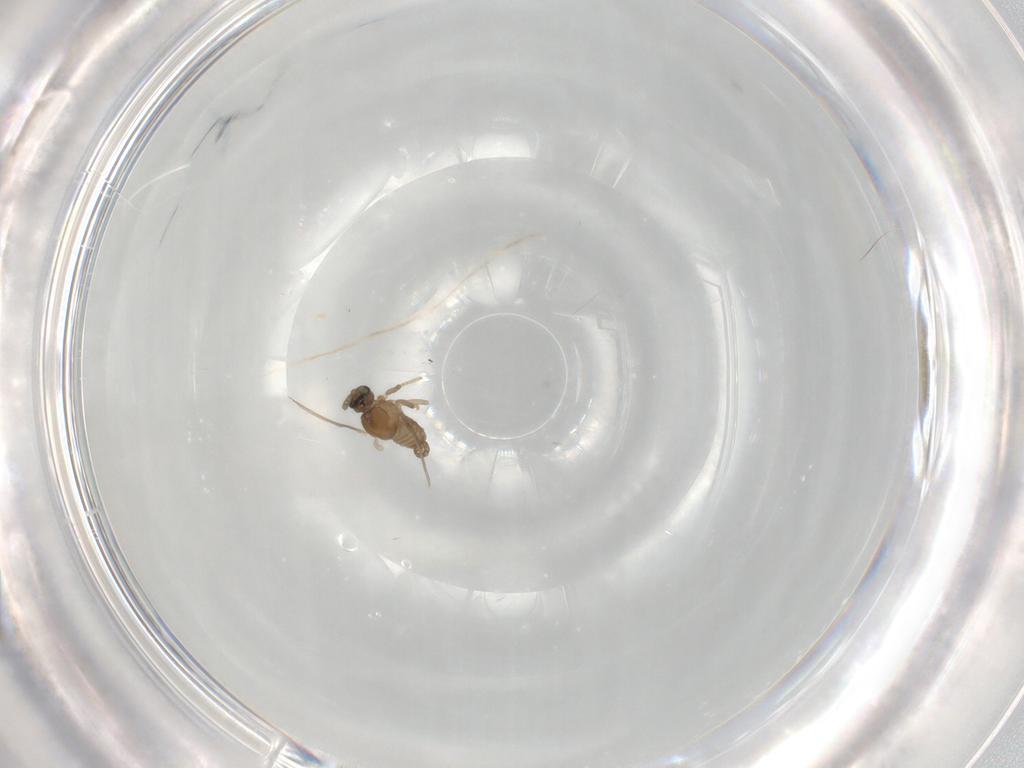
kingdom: Animalia
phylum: Arthropoda
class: Insecta
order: Diptera
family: Cecidomyiidae
